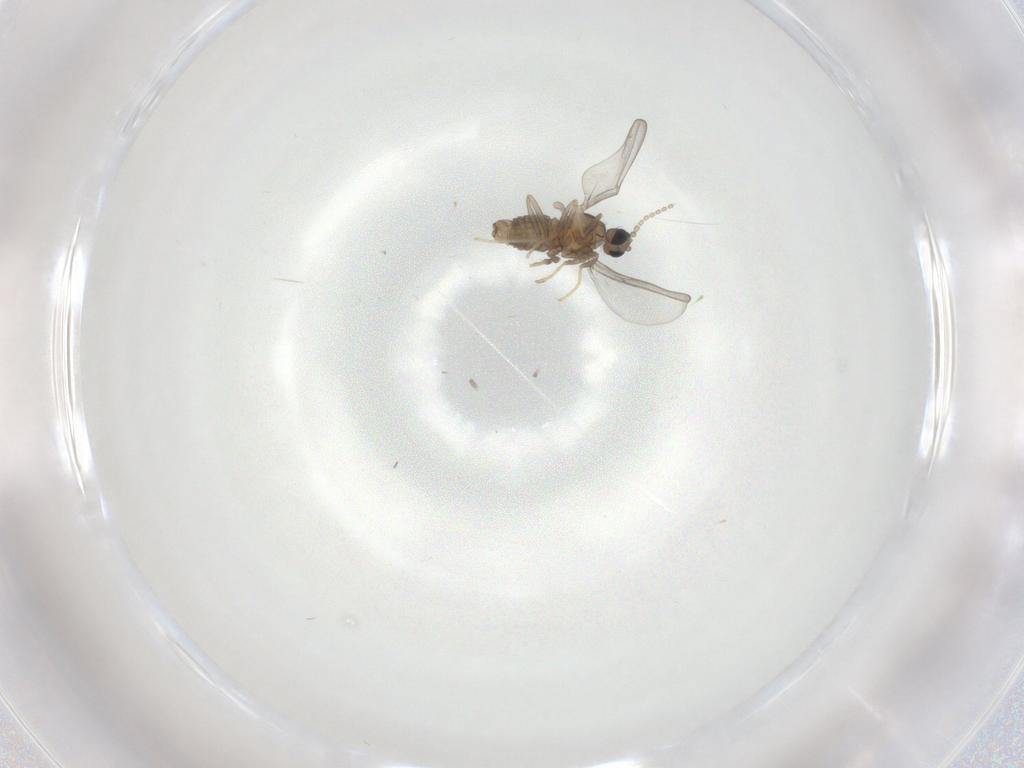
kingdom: Animalia
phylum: Arthropoda
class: Insecta
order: Diptera
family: Cecidomyiidae
